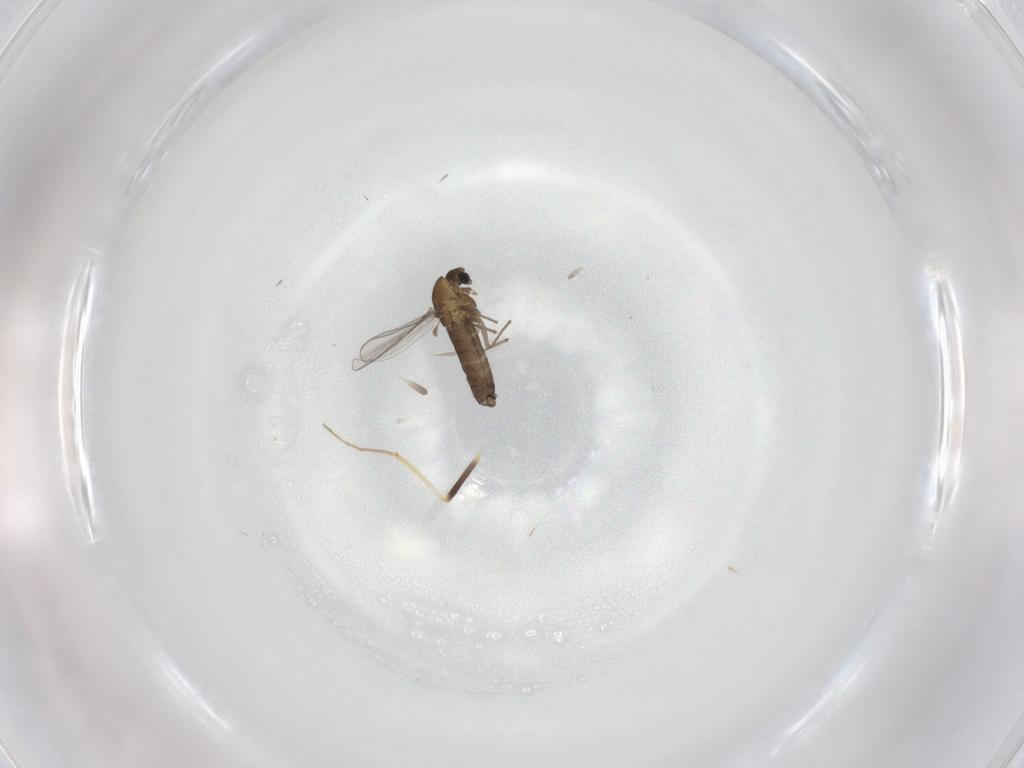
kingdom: Animalia
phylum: Arthropoda
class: Insecta
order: Diptera
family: Chironomidae
